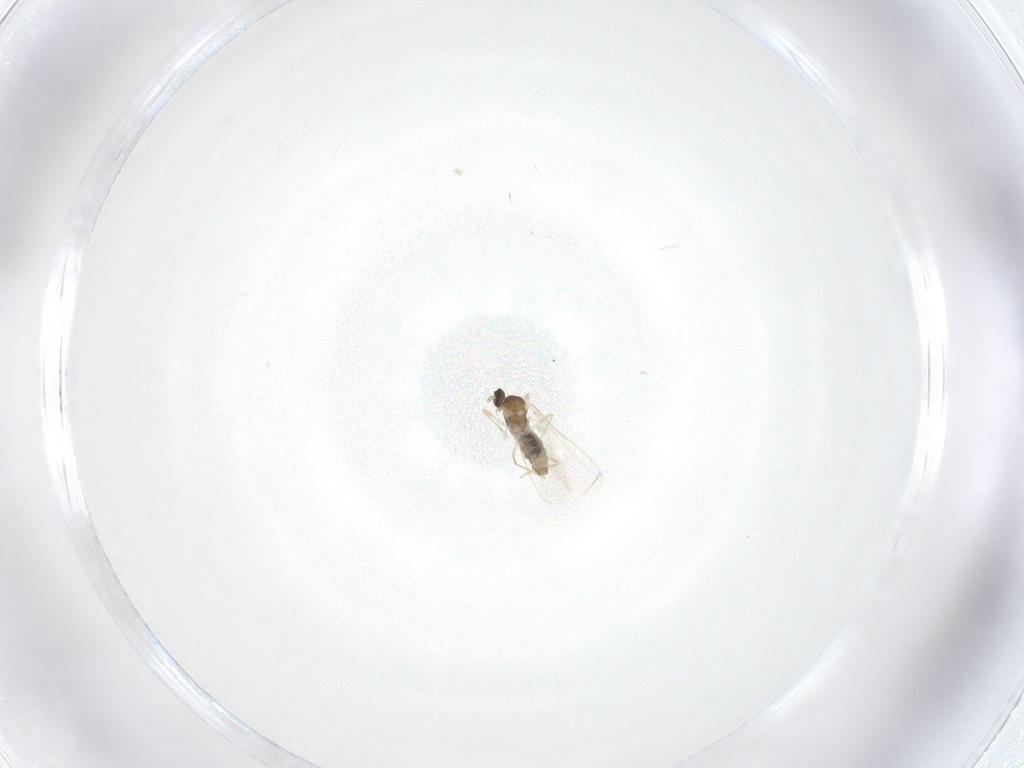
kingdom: Animalia
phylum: Arthropoda
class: Insecta
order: Diptera
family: Cecidomyiidae
